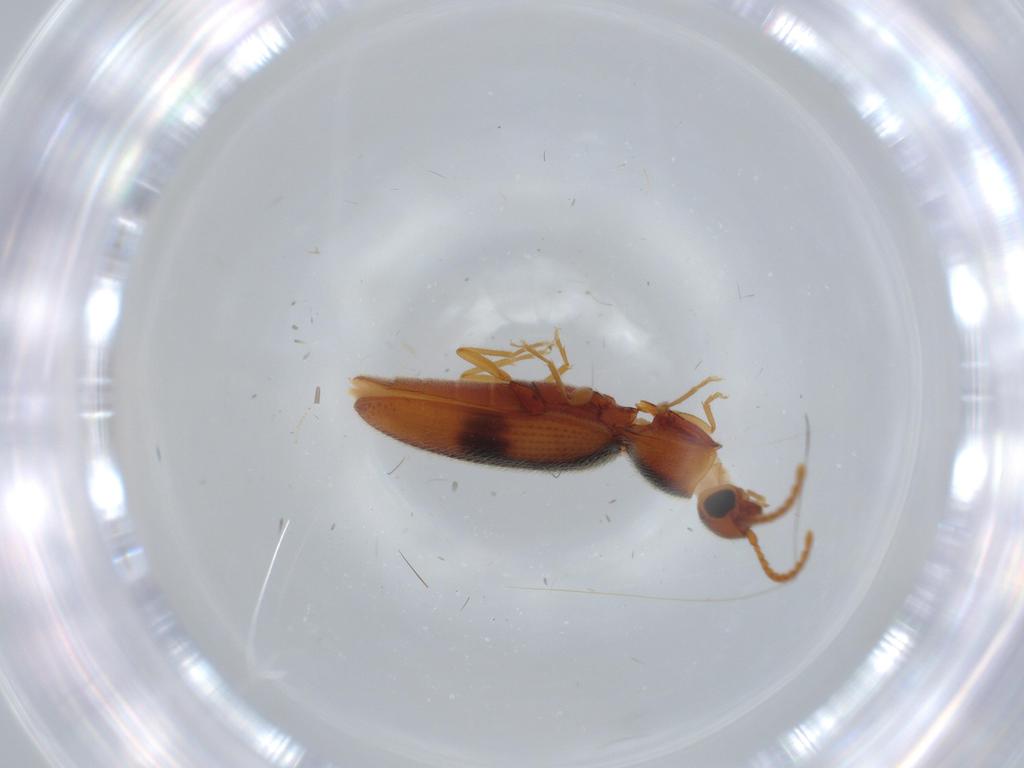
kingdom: Animalia
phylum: Arthropoda
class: Insecta
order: Coleoptera
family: Elateridae
